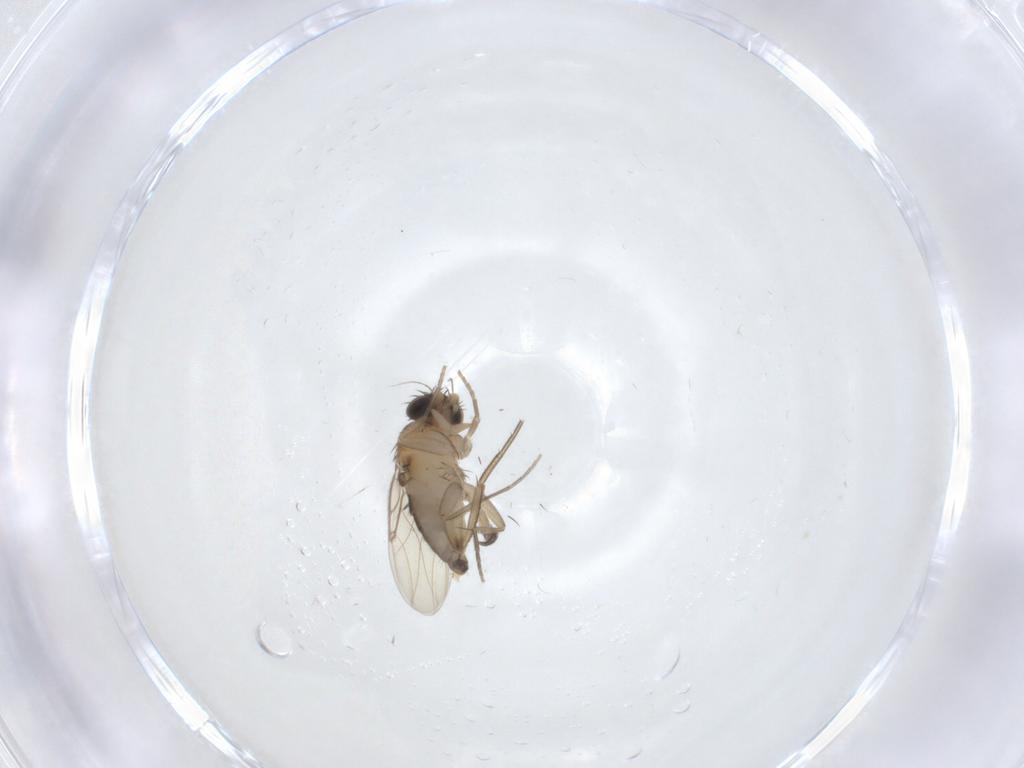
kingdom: Animalia
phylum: Arthropoda
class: Insecta
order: Diptera
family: Phoridae
